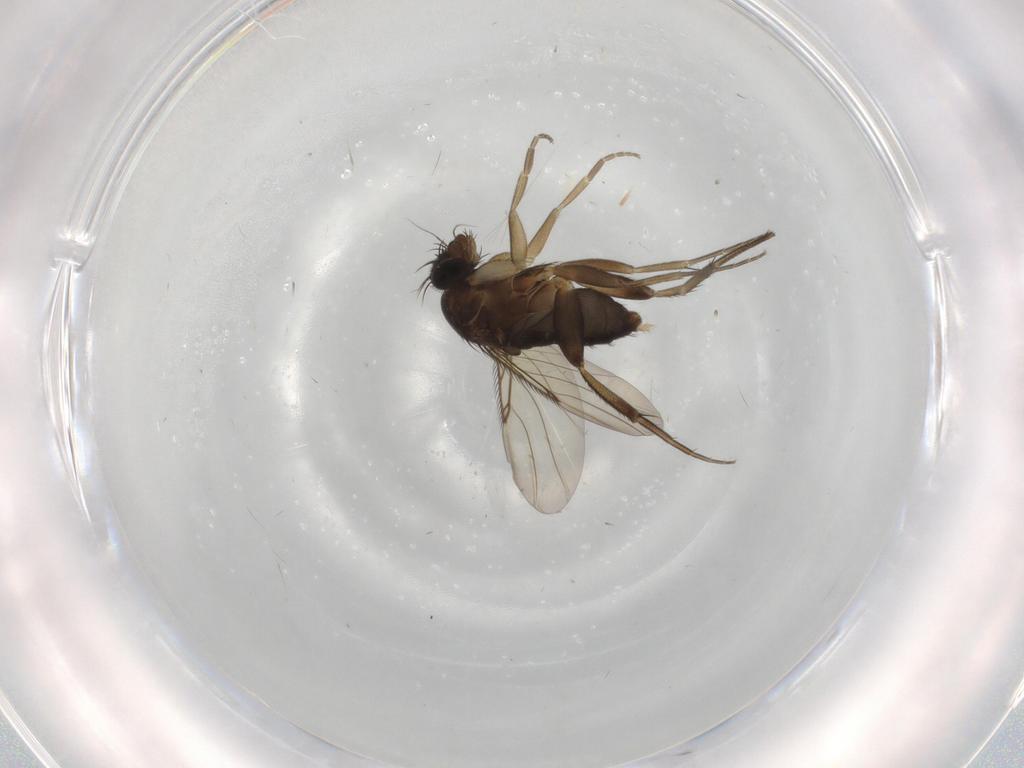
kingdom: Animalia
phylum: Arthropoda
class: Insecta
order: Diptera
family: Phoridae
